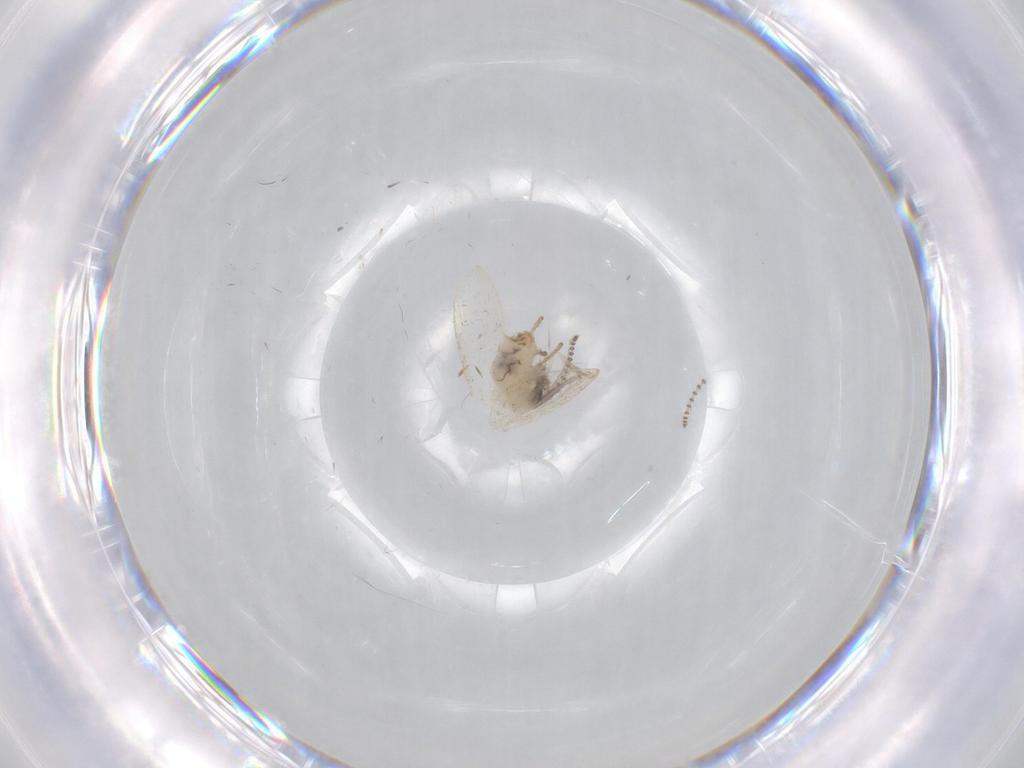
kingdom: Animalia
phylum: Arthropoda
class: Insecta
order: Diptera
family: Psychodidae
